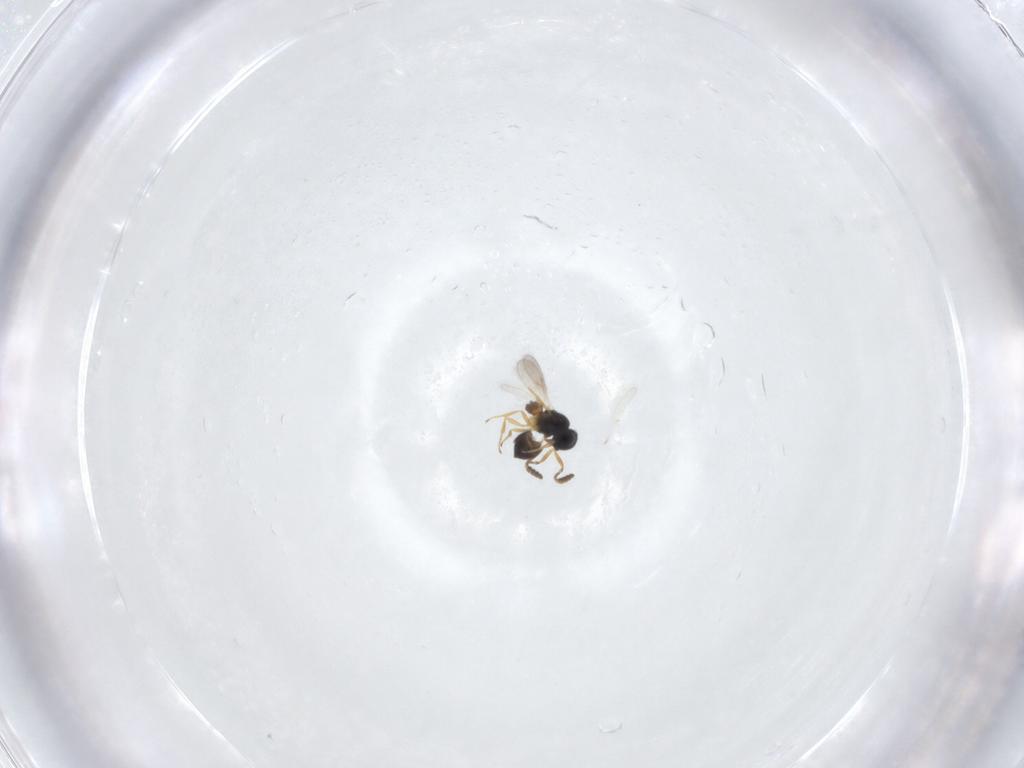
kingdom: Animalia
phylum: Arthropoda
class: Insecta
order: Hymenoptera
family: Scelionidae
